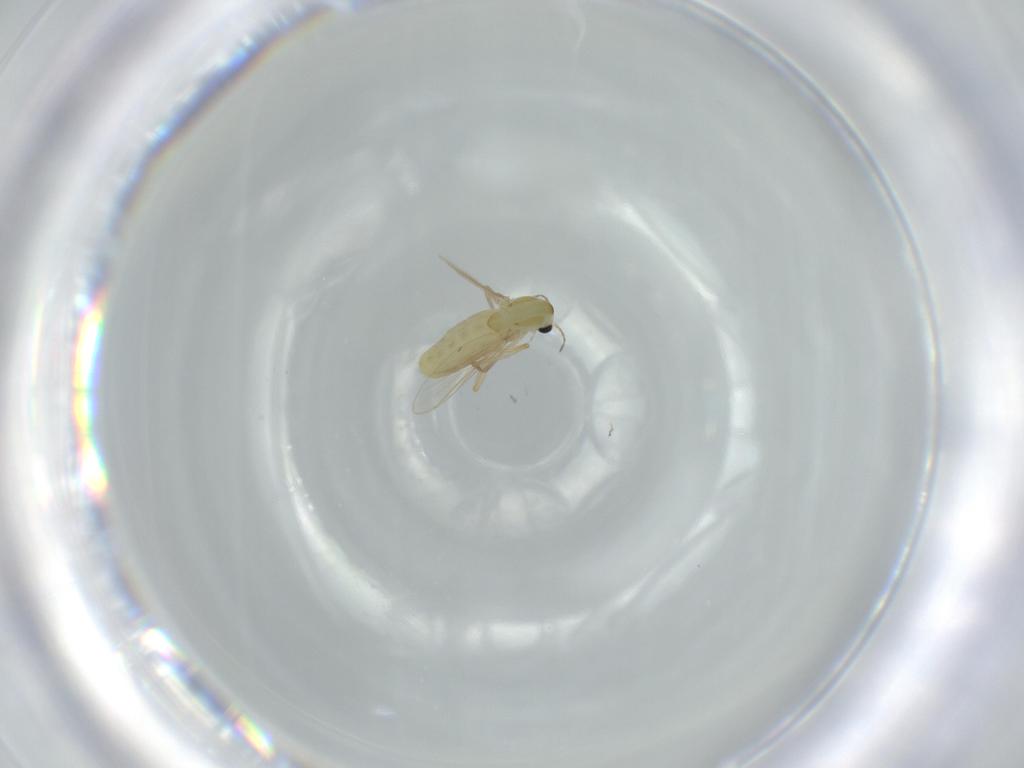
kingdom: Animalia
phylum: Arthropoda
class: Insecta
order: Diptera
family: Chironomidae
